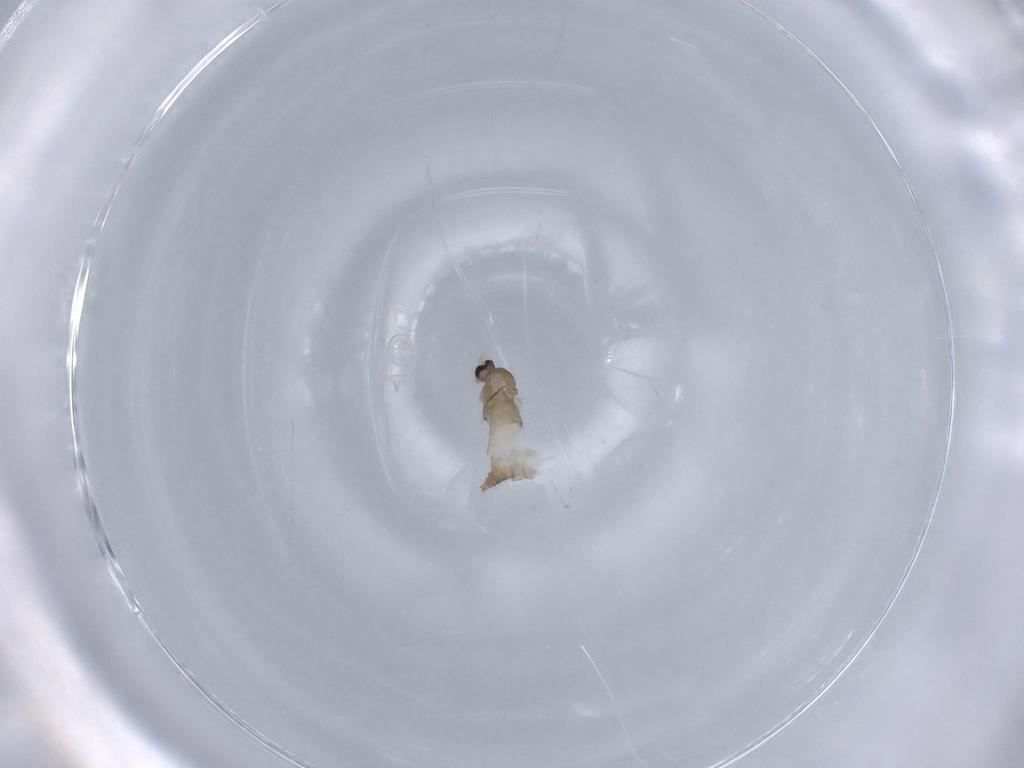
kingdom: Animalia
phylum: Arthropoda
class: Insecta
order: Diptera
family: Cecidomyiidae
